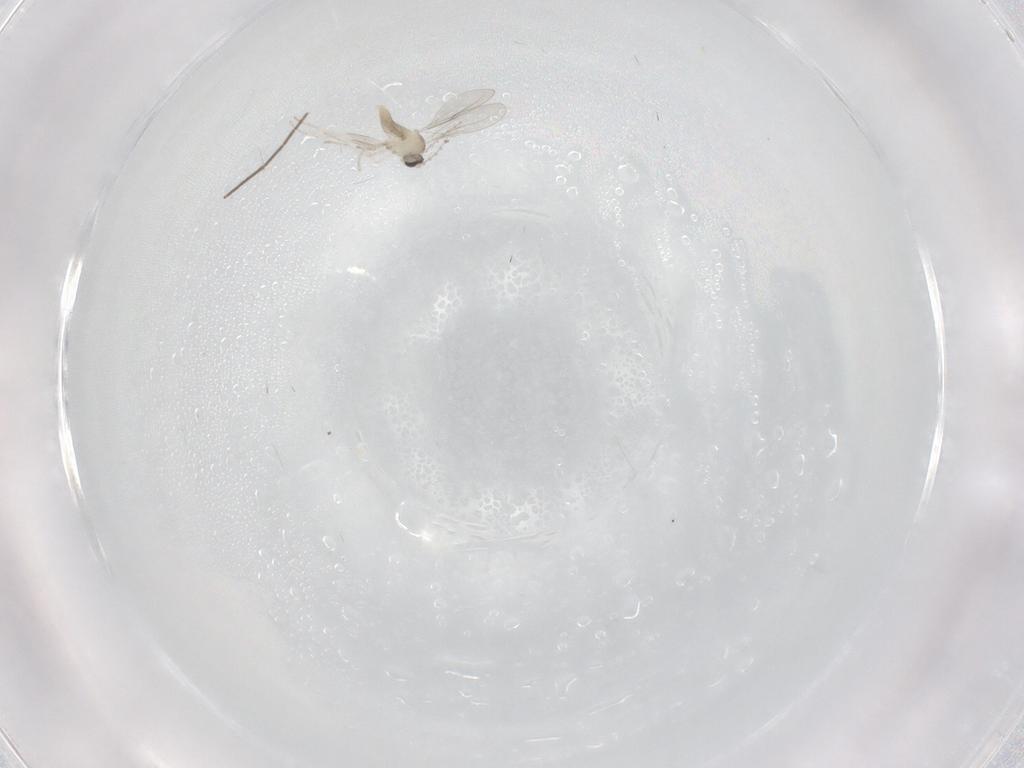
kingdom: Animalia
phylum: Arthropoda
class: Insecta
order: Diptera
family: Cecidomyiidae
